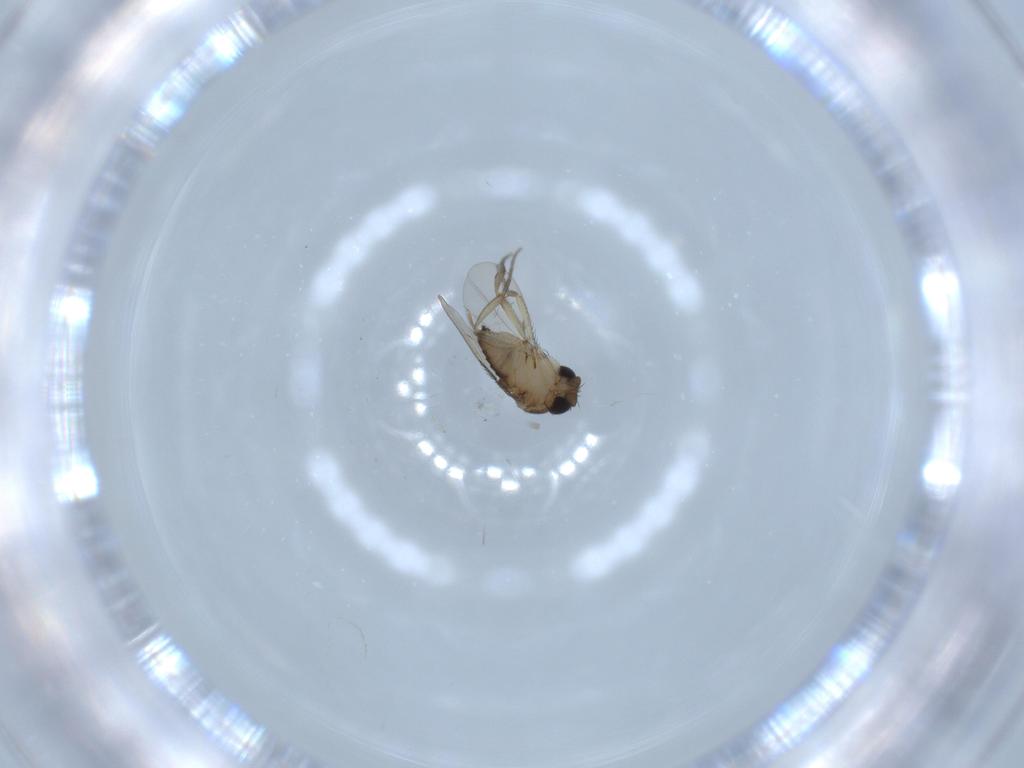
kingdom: Animalia
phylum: Arthropoda
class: Insecta
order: Diptera
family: Phoridae
